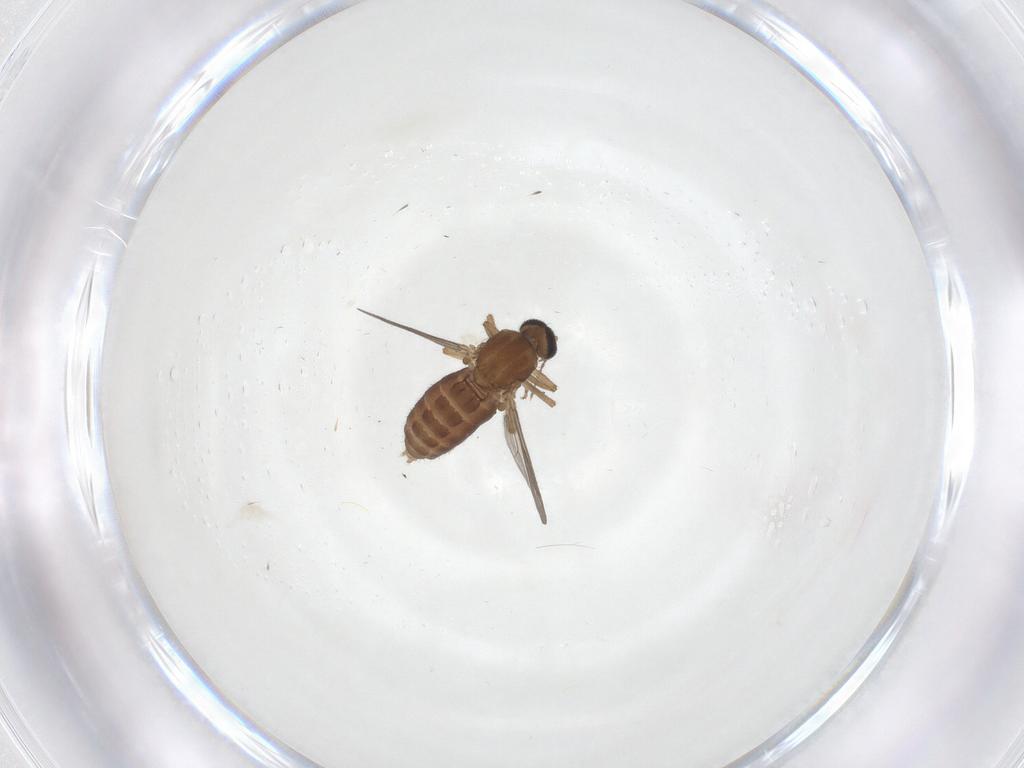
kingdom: Animalia
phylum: Arthropoda
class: Insecta
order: Diptera
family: Ceratopogonidae
